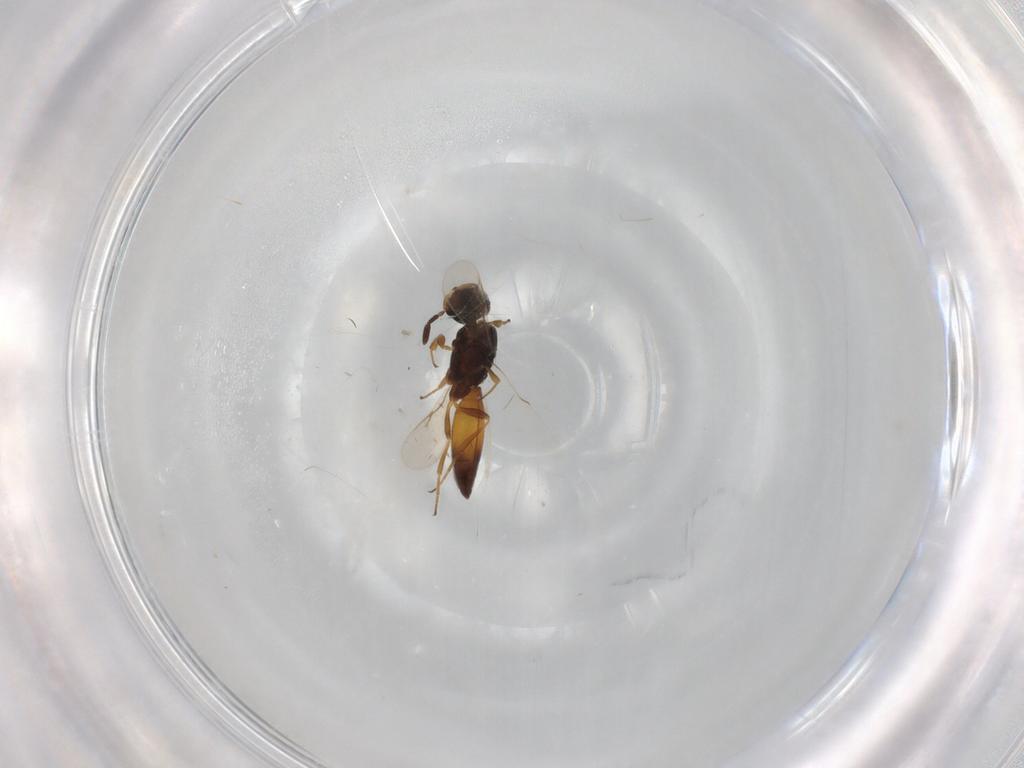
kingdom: Animalia
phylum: Arthropoda
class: Insecta
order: Hymenoptera
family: Scelionidae
